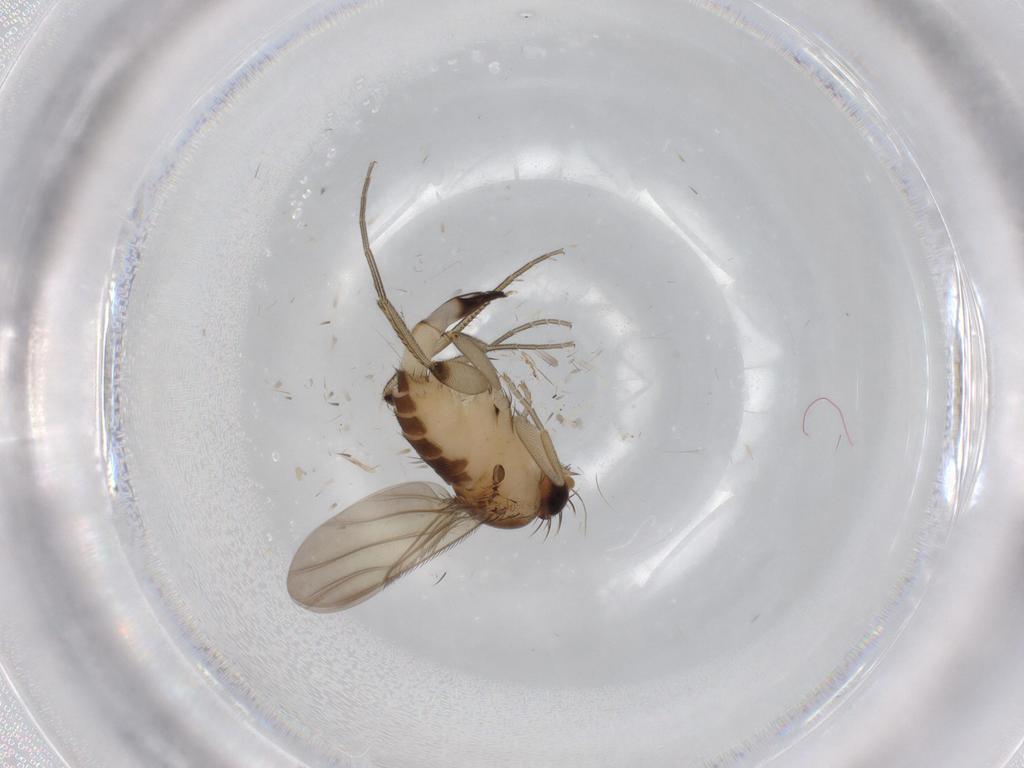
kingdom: Animalia
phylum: Arthropoda
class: Insecta
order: Diptera
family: Phoridae
